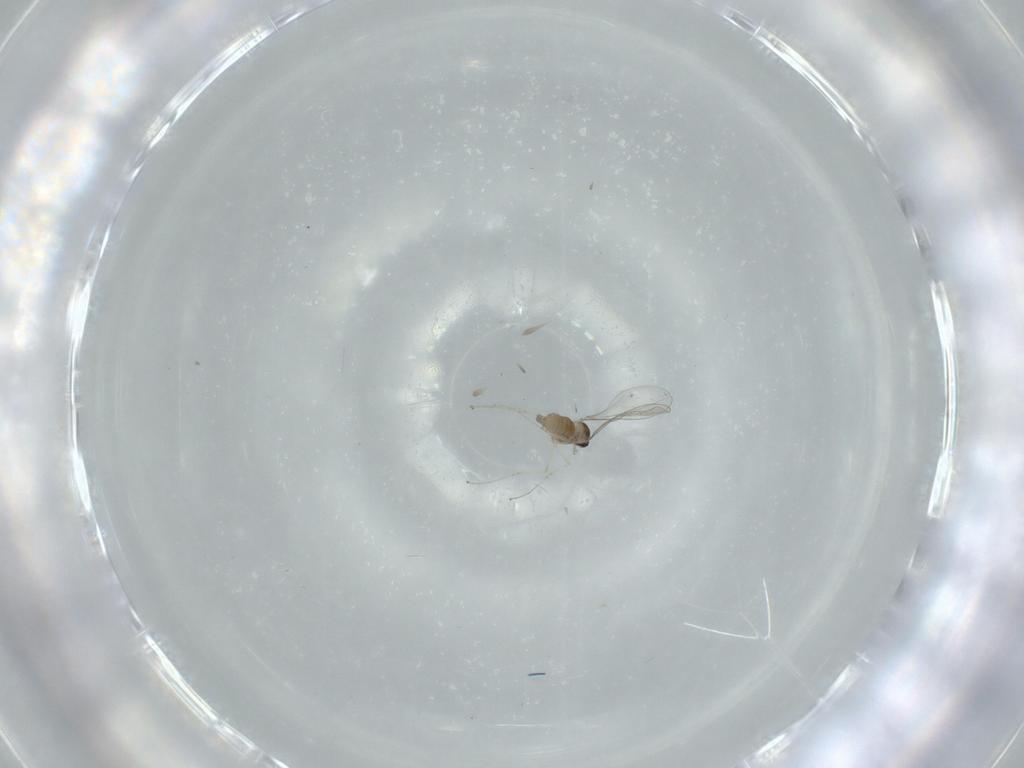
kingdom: Animalia
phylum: Arthropoda
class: Insecta
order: Diptera
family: Cecidomyiidae
